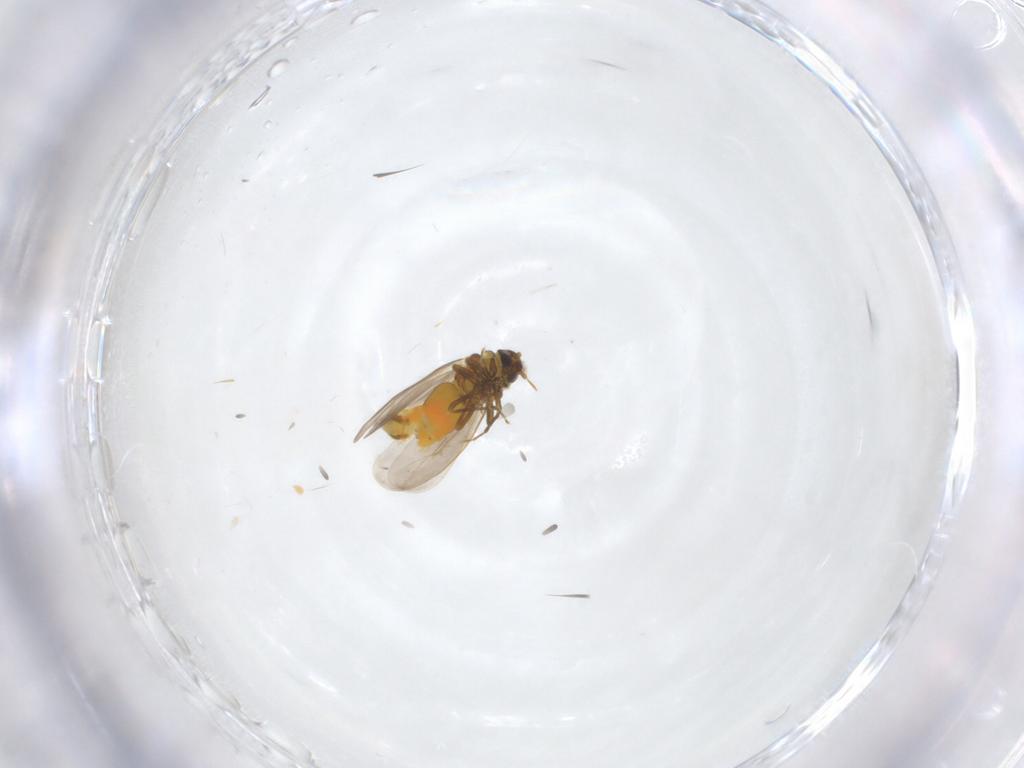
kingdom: Animalia
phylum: Arthropoda
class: Insecta
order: Hemiptera
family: Aleyrodidae
